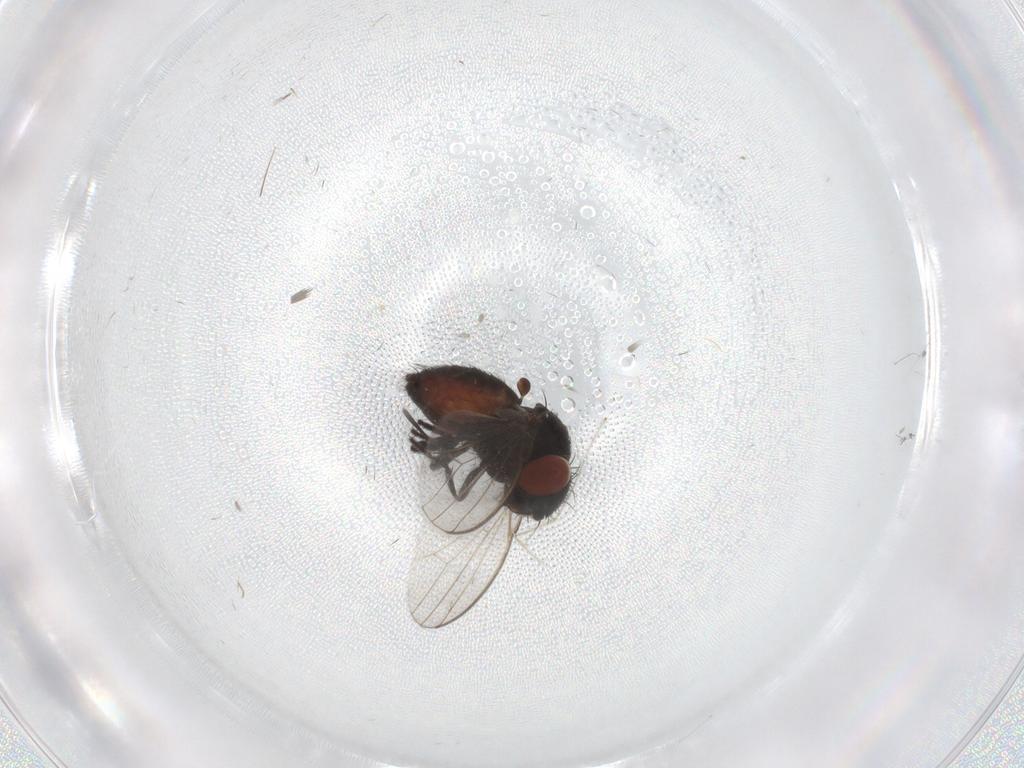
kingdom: Animalia
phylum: Arthropoda
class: Insecta
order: Diptera
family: Milichiidae
